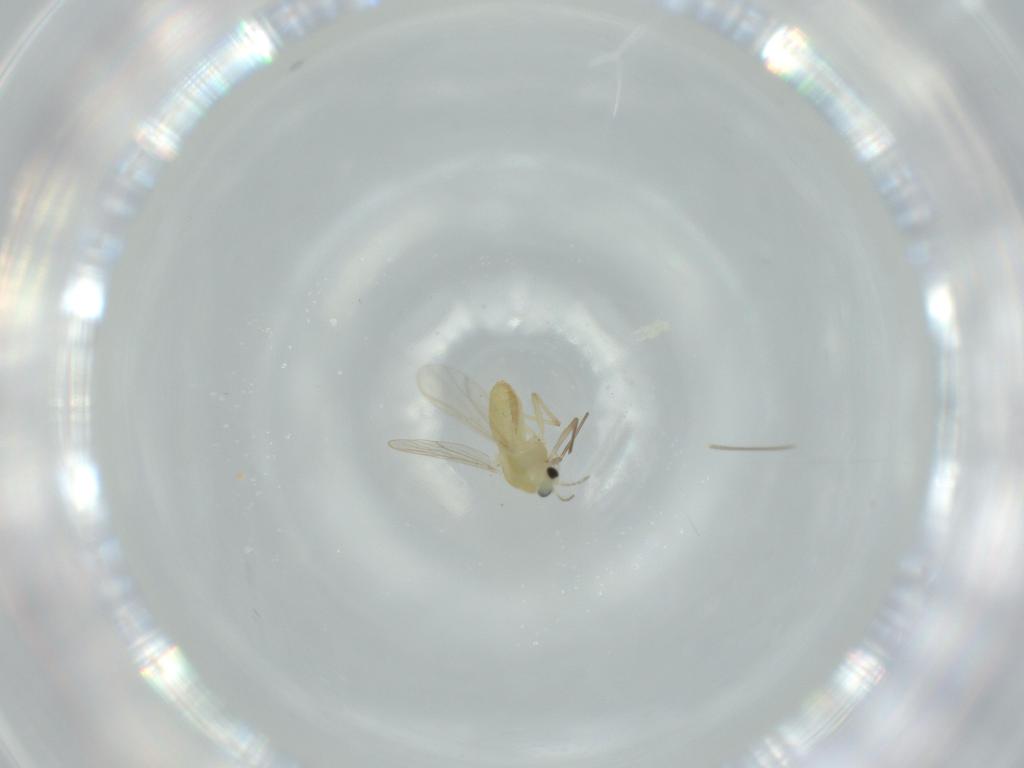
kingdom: Animalia
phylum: Arthropoda
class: Insecta
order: Diptera
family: Chironomidae
